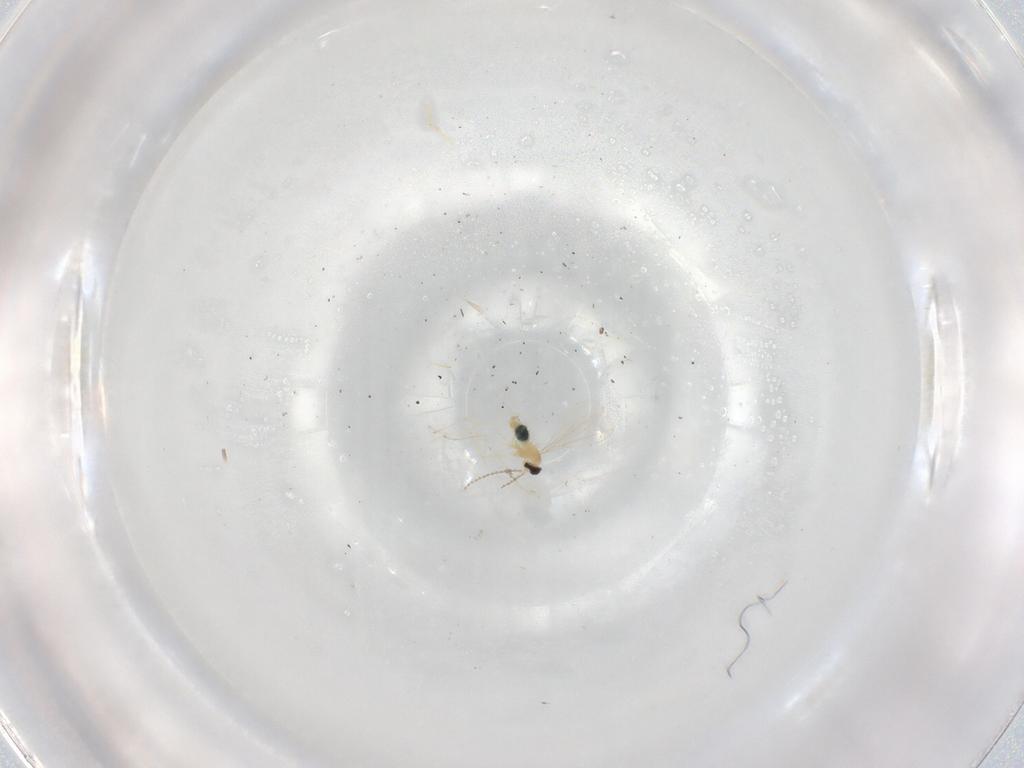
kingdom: Animalia
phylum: Arthropoda
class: Insecta
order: Diptera
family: Cecidomyiidae
